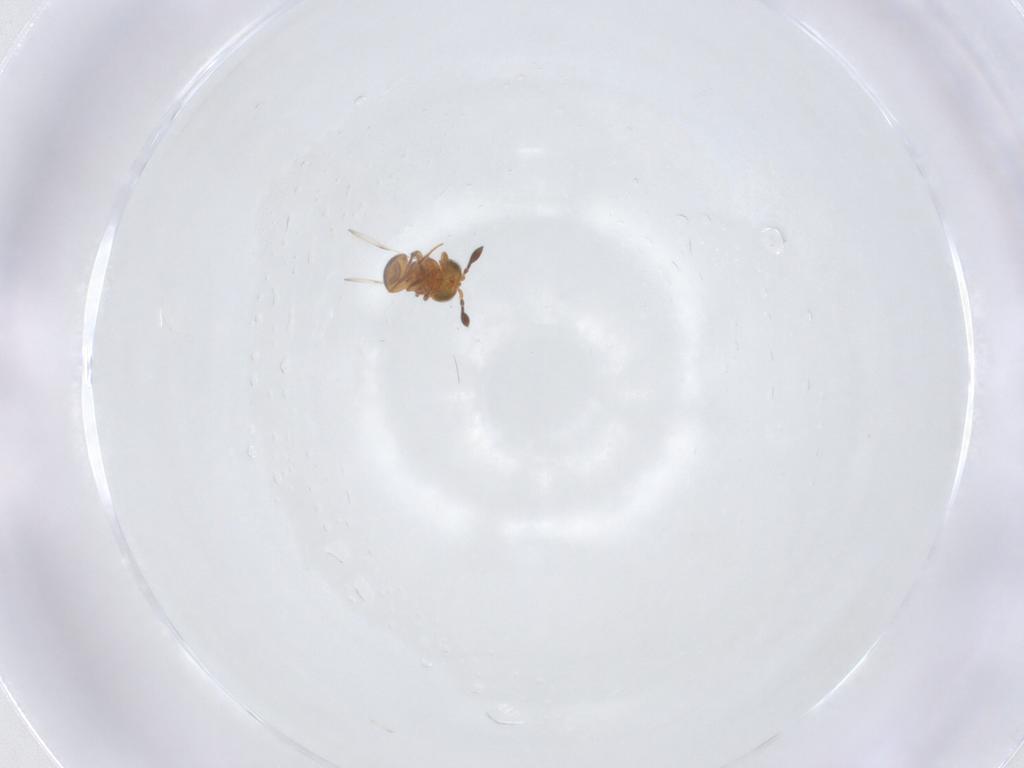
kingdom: Animalia
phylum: Arthropoda
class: Insecta
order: Hymenoptera
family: Scelionidae
